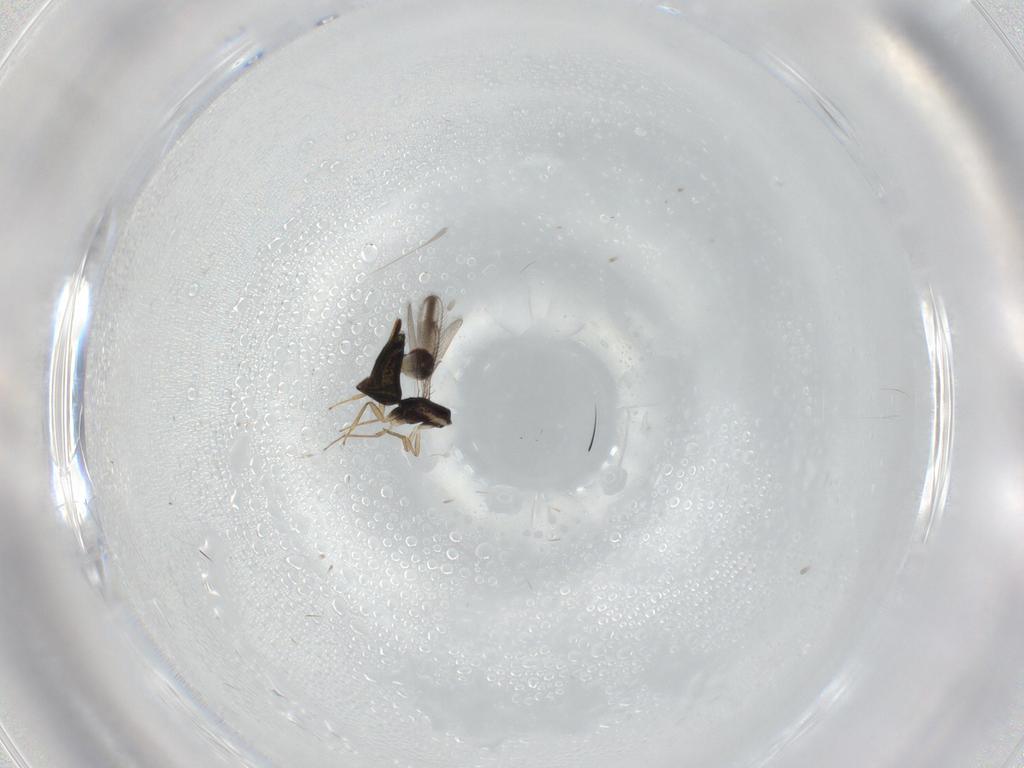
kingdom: Animalia
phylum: Arthropoda
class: Insecta
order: Hymenoptera
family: Pteromalidae
